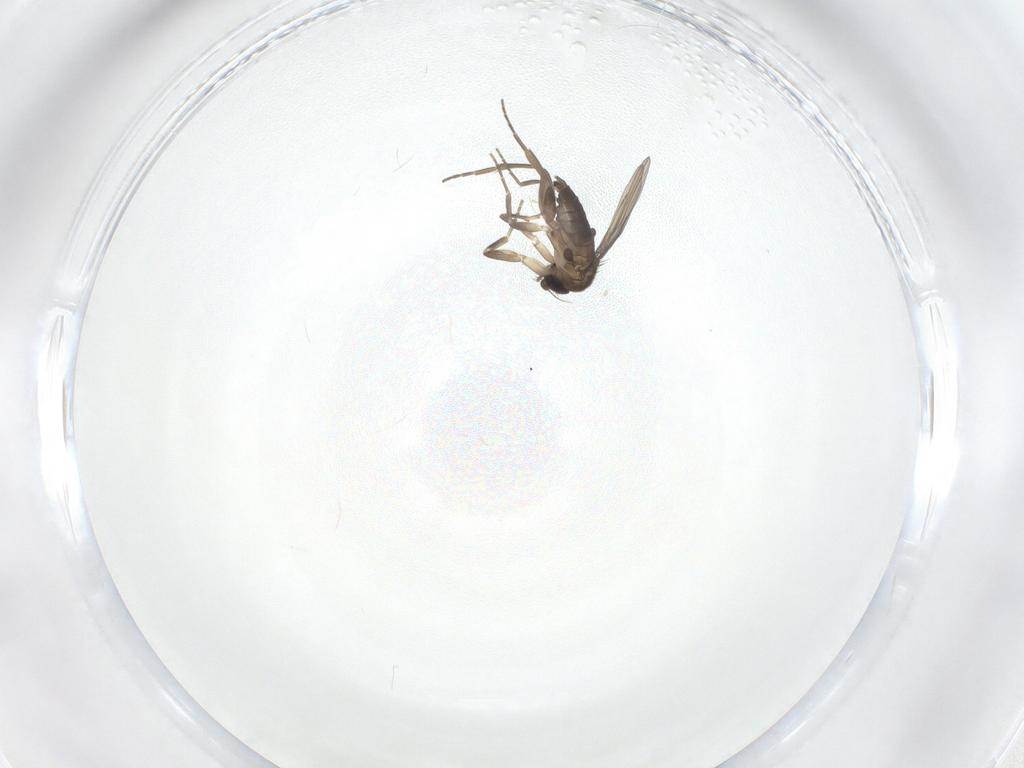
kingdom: Animalia
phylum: Arthropoda
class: Insecta
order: Diptera
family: Phoridae
